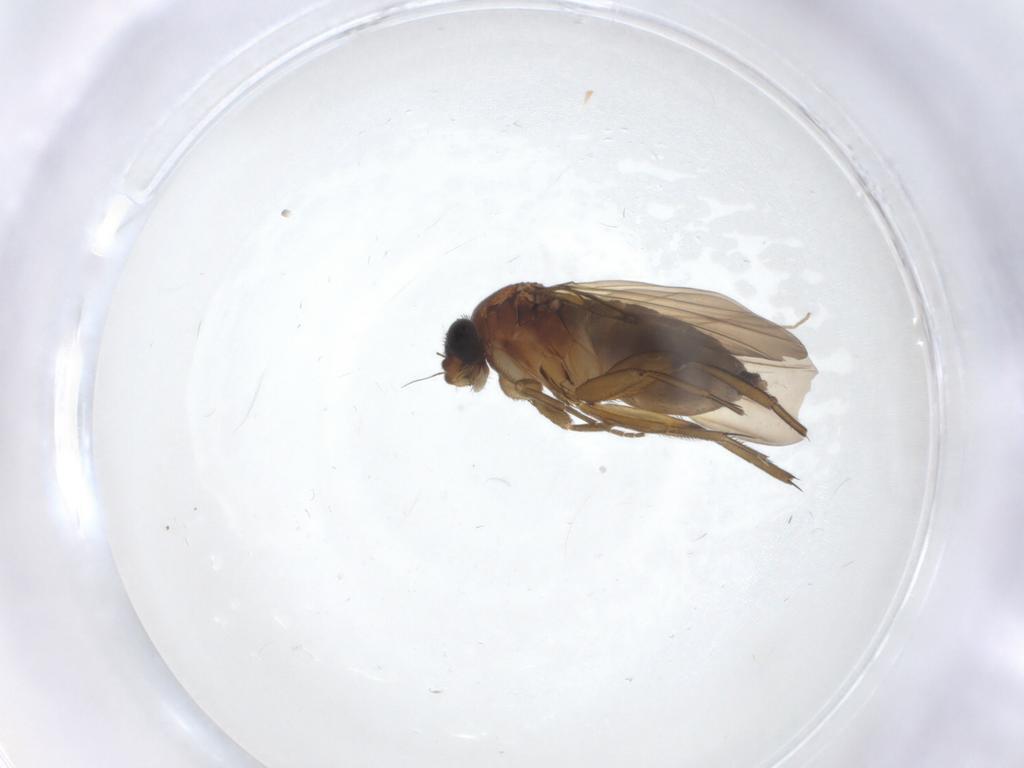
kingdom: Animalia
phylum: Arthropoda
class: Insecta
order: Diptera
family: Phoridae
